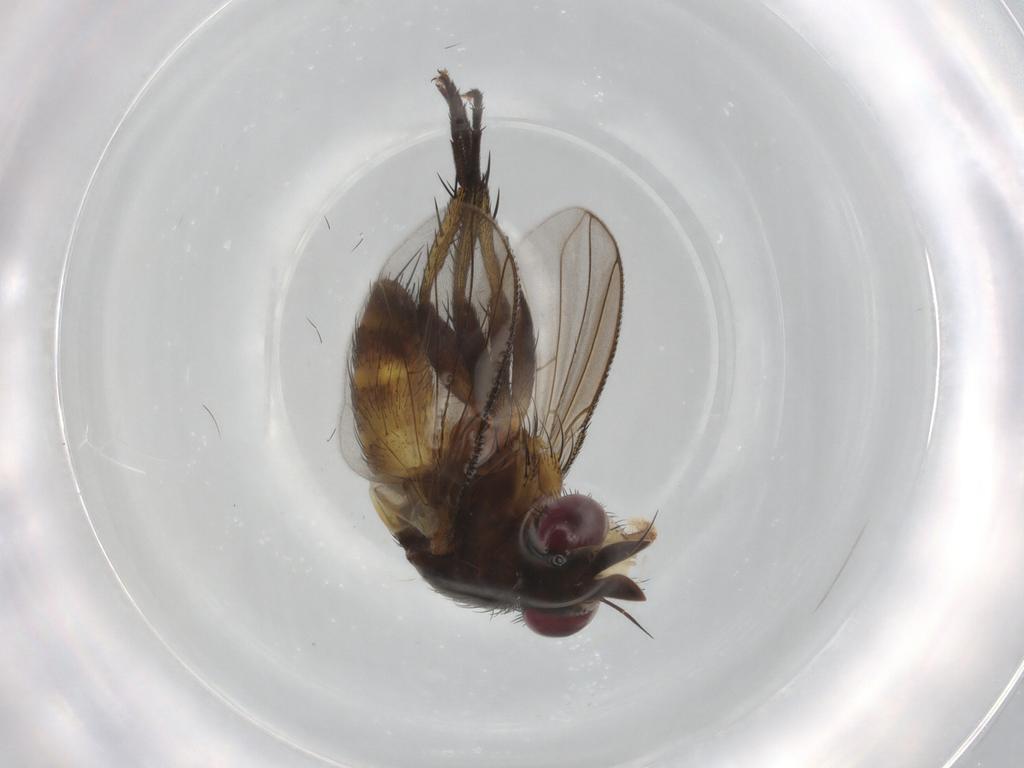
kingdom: Animalia
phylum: Arthropoda
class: Insecta
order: Diptera
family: Tachinidae
